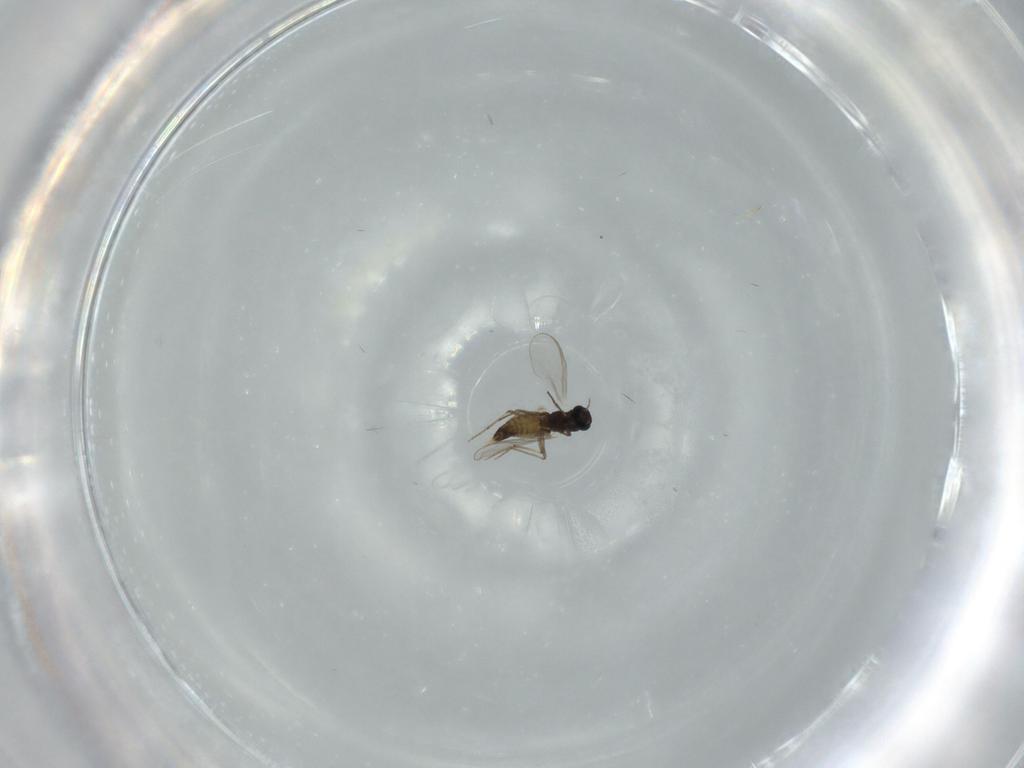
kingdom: Animalia
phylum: Arthropoda
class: Insecta
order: Diptera
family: Chironomidae
